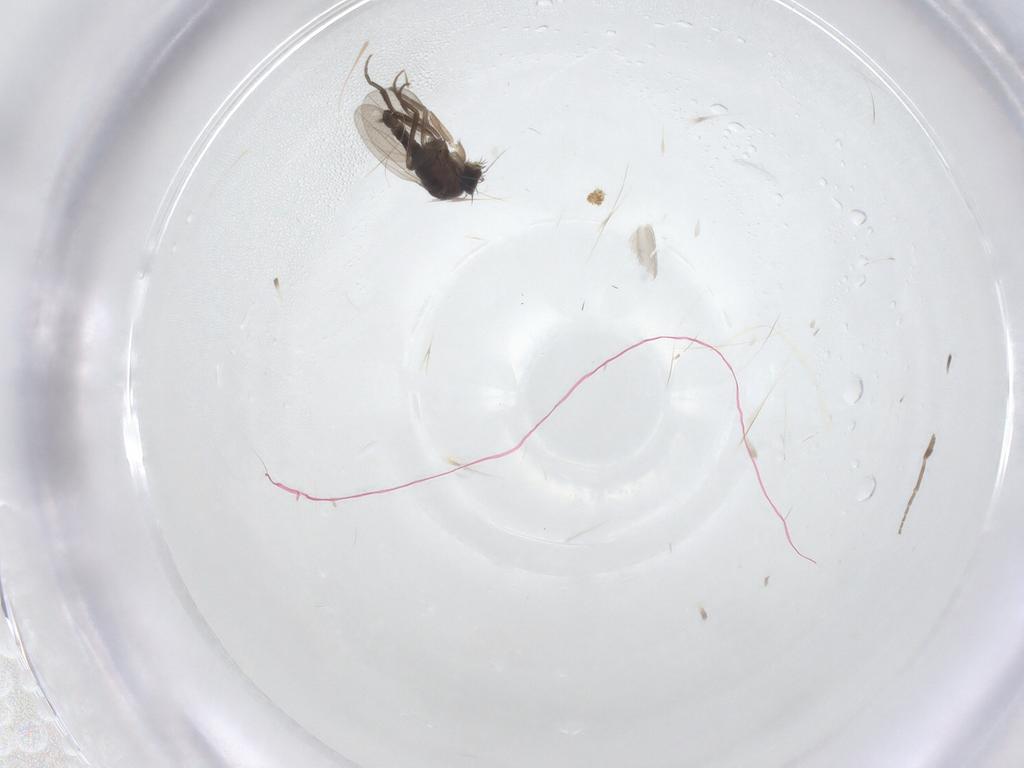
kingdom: Animalia
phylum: Arthropoda
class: Insecta
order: Diptera
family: Phoridae
